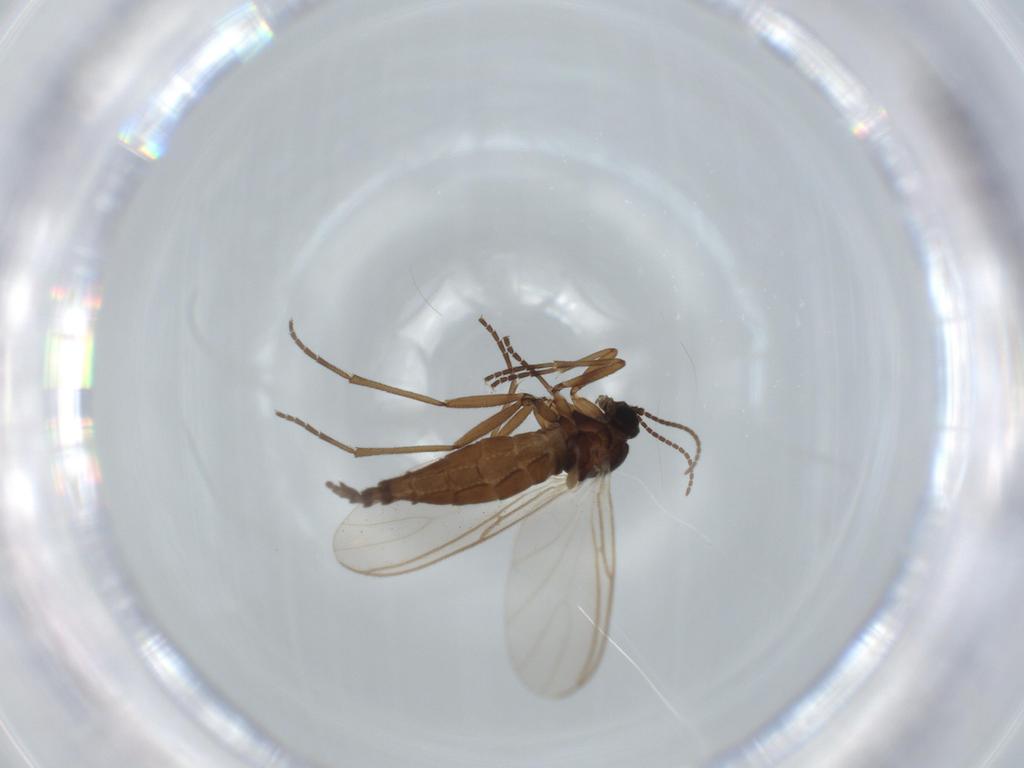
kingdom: Animalia
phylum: Arthropoda
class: Insecta
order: Diptera
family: Sciaridae
